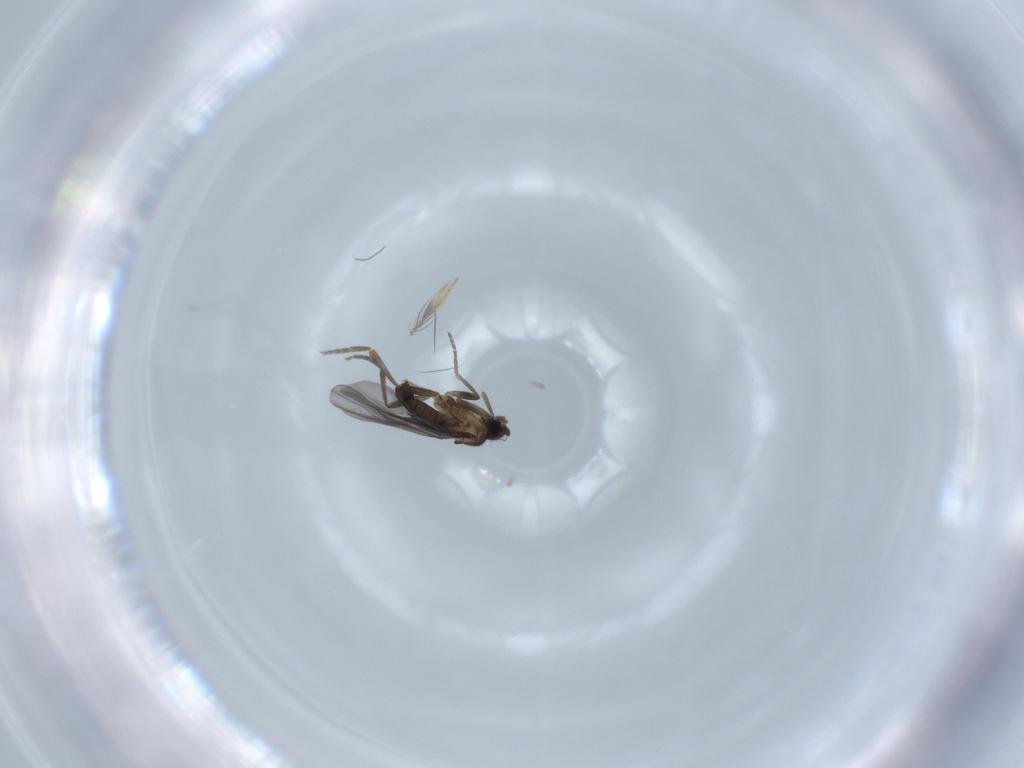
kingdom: Animalia
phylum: Arthropoda
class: Insecta
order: Diptera
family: Phoridae
